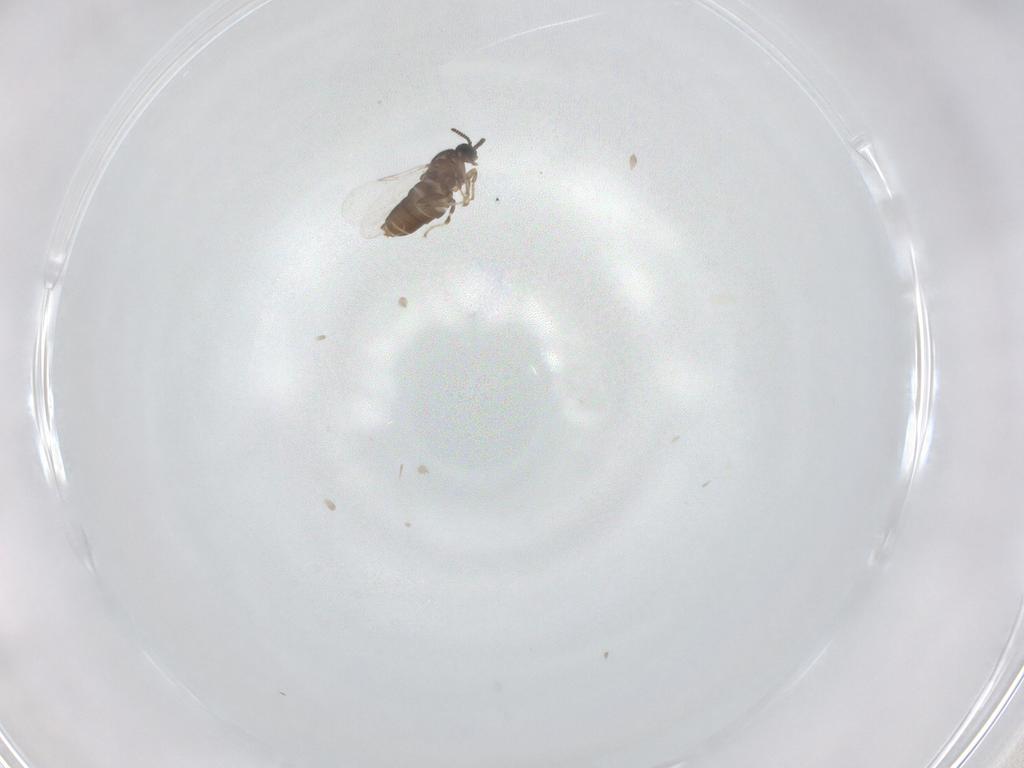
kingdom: Animalia
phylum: Arthropoda
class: Insecta
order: Diptera
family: Scatopsidae
